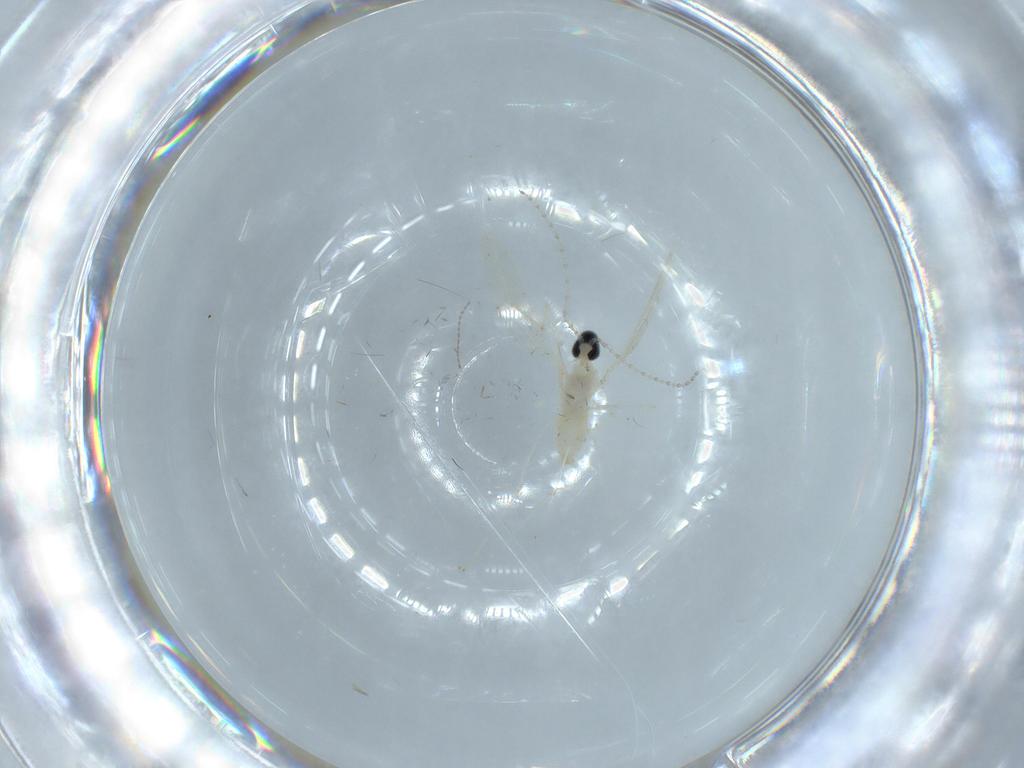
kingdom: Animalia
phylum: Arthropoda
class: Insecta
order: Diptera
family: Cecidomyiidae
